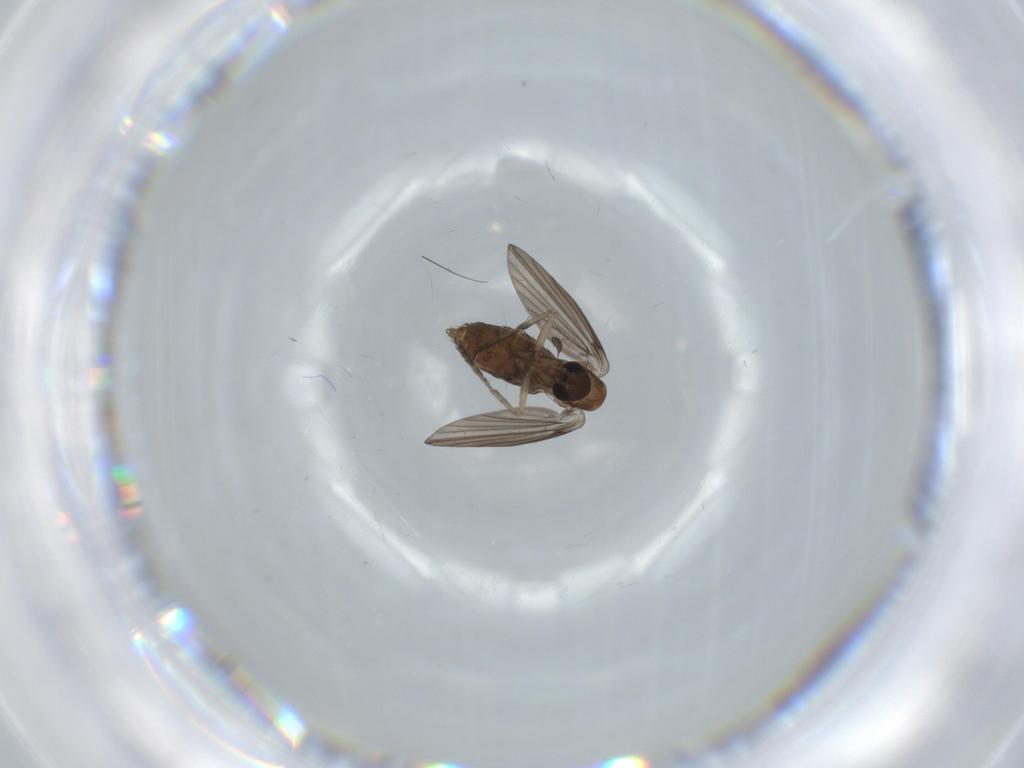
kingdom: Animalia
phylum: Arthropoda
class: Insecta
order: Diptera
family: Psychodidae
